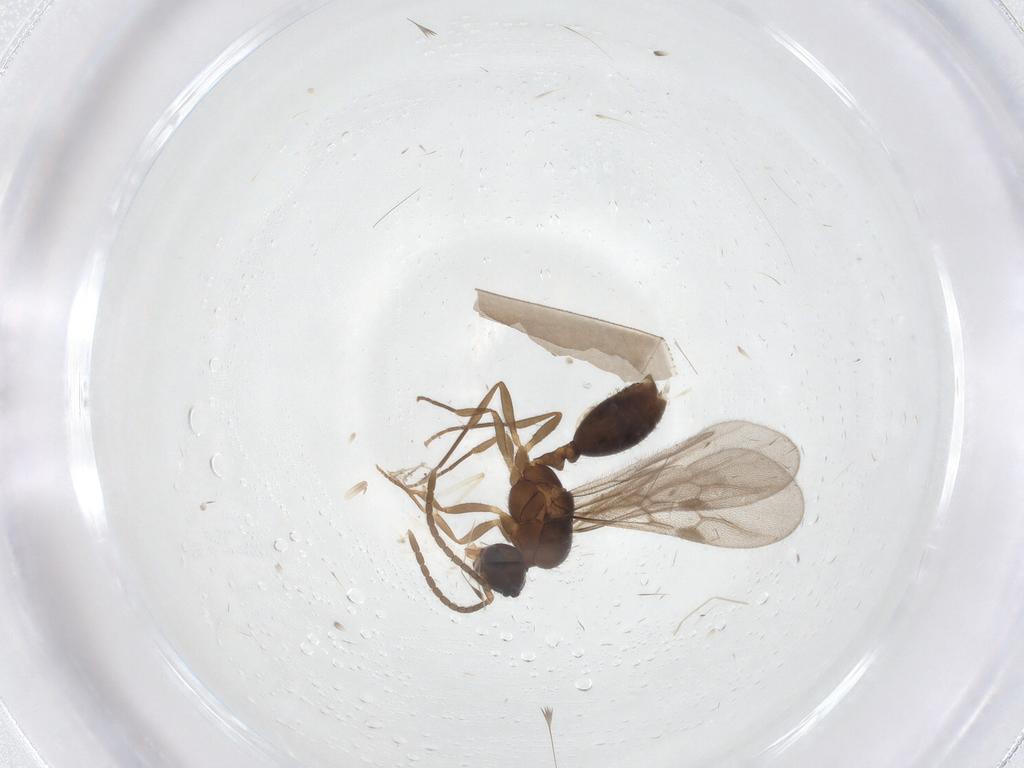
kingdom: Animalia
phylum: Arthropoda
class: Insecta
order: Hymenoptera
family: Formicidae
